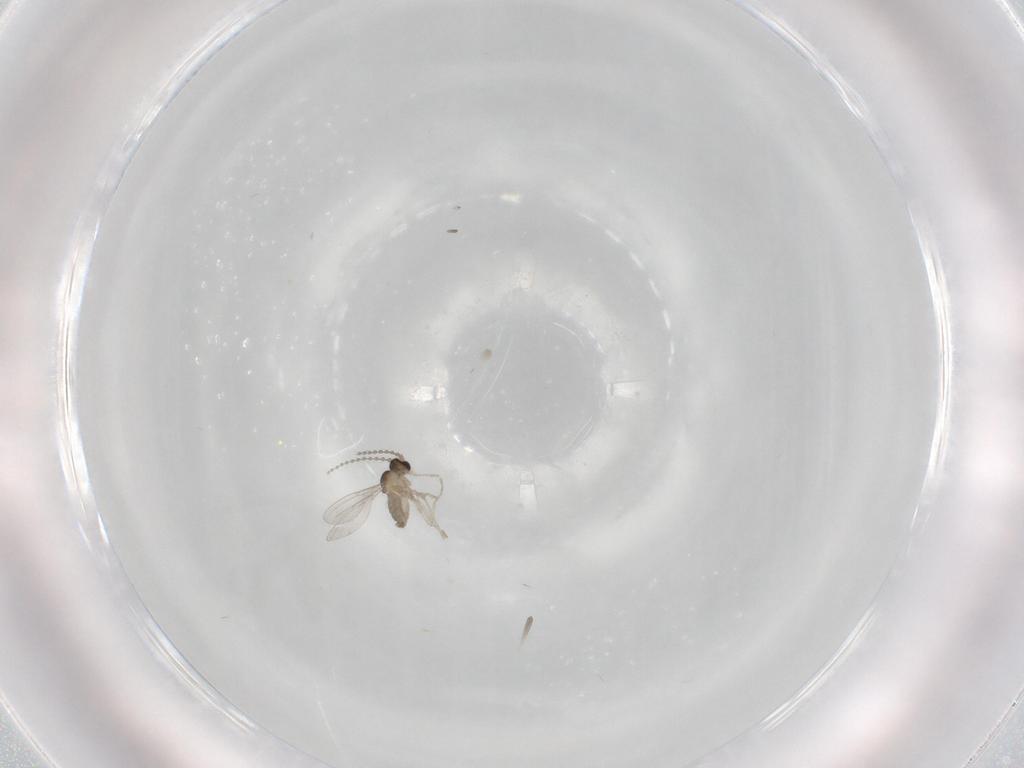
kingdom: Animalia
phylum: Arthropoda
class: Insecta
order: Diptera
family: Cecidomyiidae
